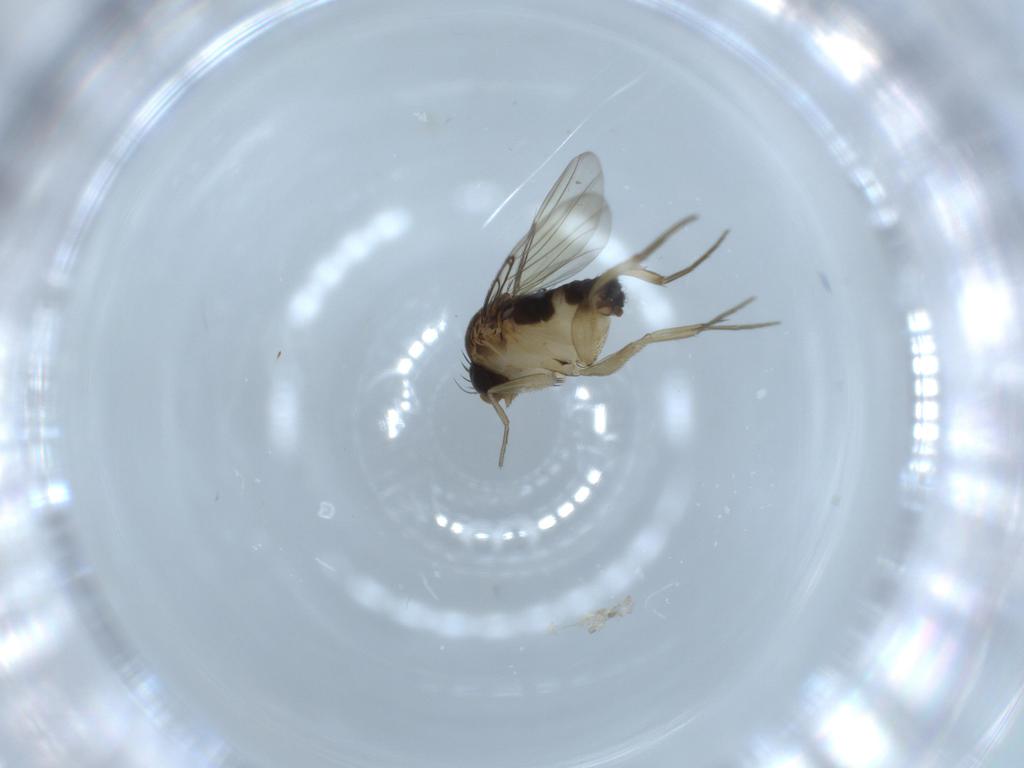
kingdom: Animalia
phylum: Arthropoda
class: Insecta
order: Diptera
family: Phoridae
